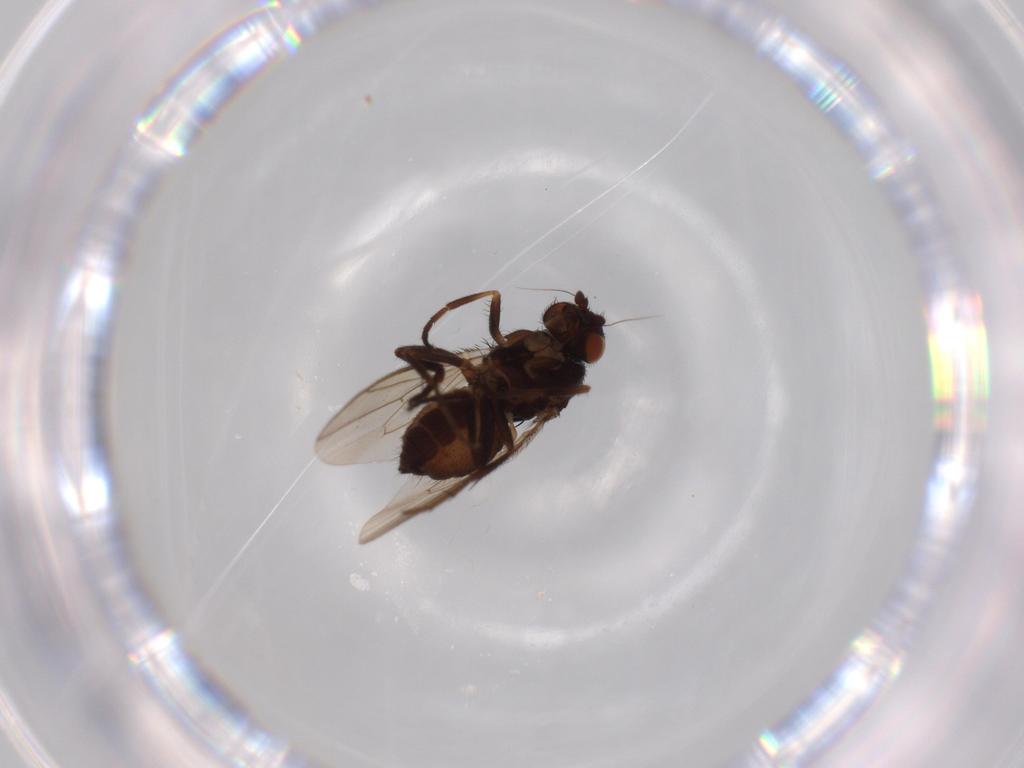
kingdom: Animalia
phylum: Arthropoda
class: Insecta
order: Diptera
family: Sphaeroceridae
